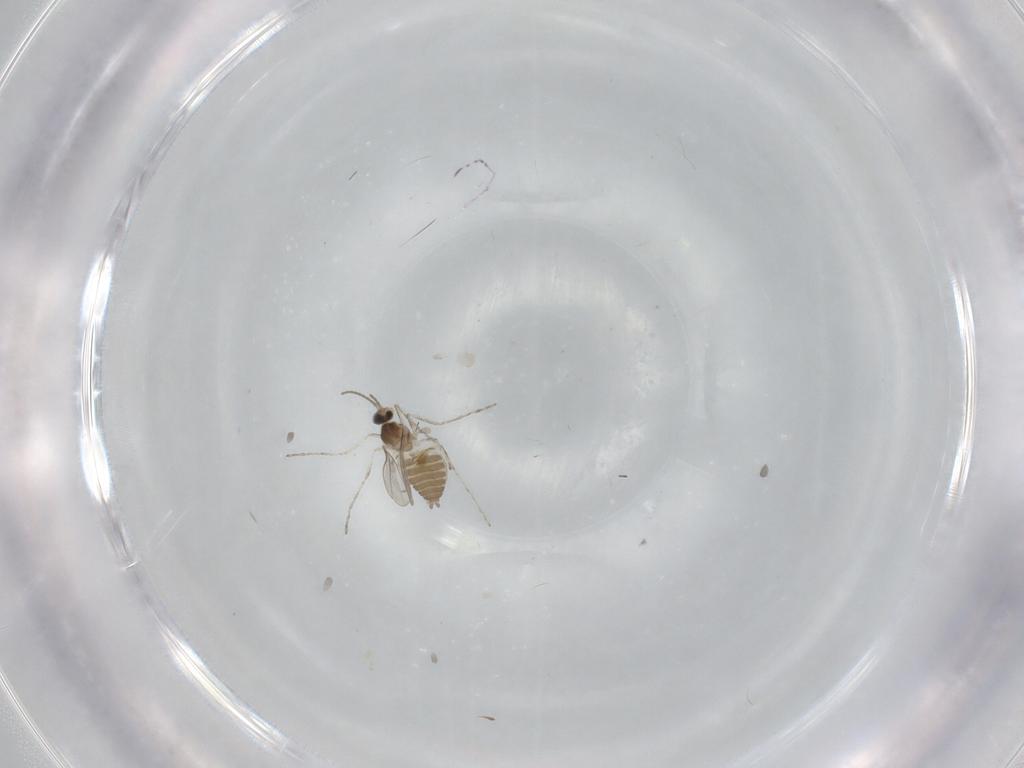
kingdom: Animalia
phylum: Arthropoda
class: Insecta
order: Diptera
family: Cecidomyiidae
